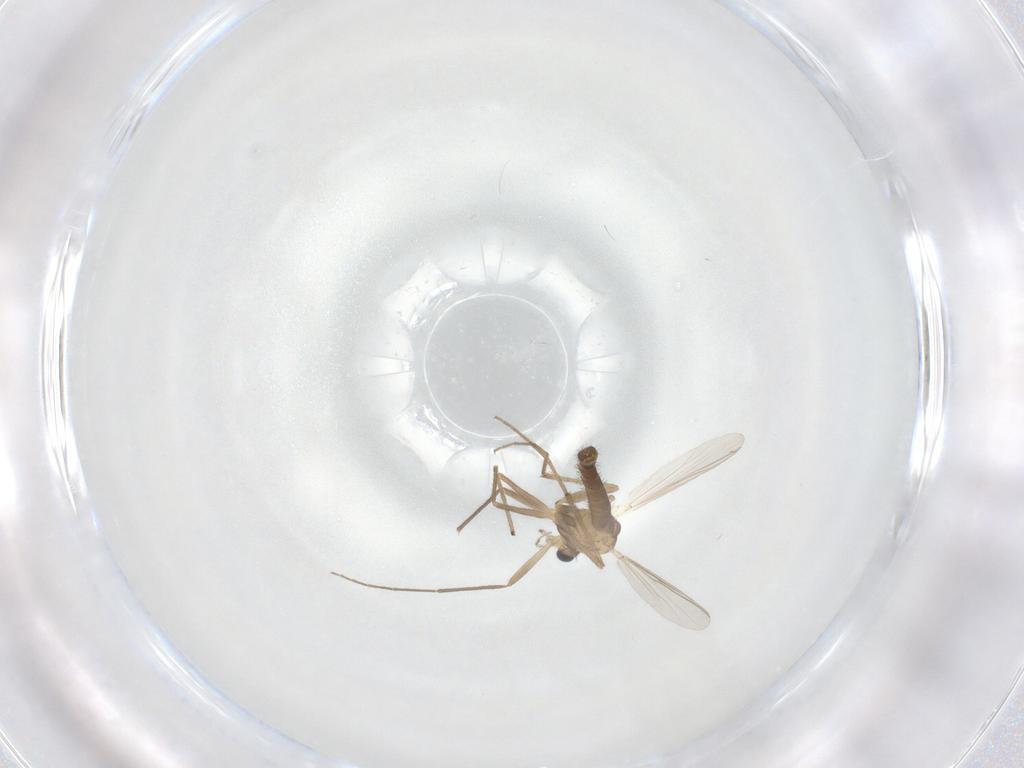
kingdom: Animalia
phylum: Arthropoda
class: Insecta
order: Diptera
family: Chironomidae
